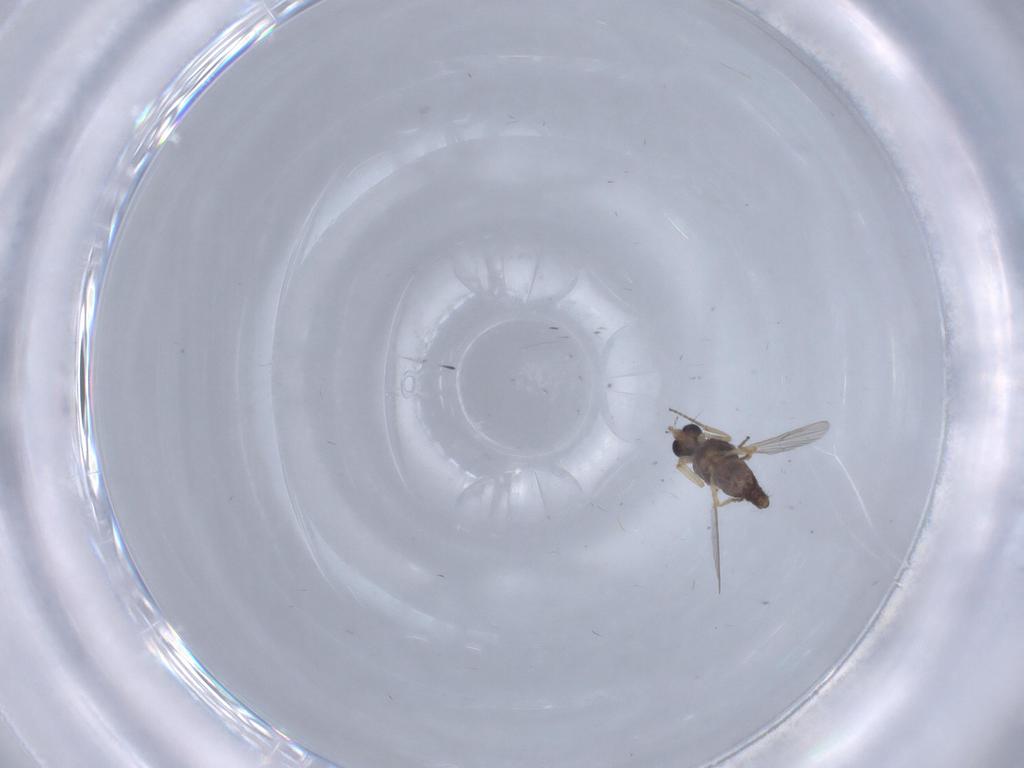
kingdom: Animalia
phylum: Arthropoda
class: Insecta
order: Diptera
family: Ceratopogonidae
